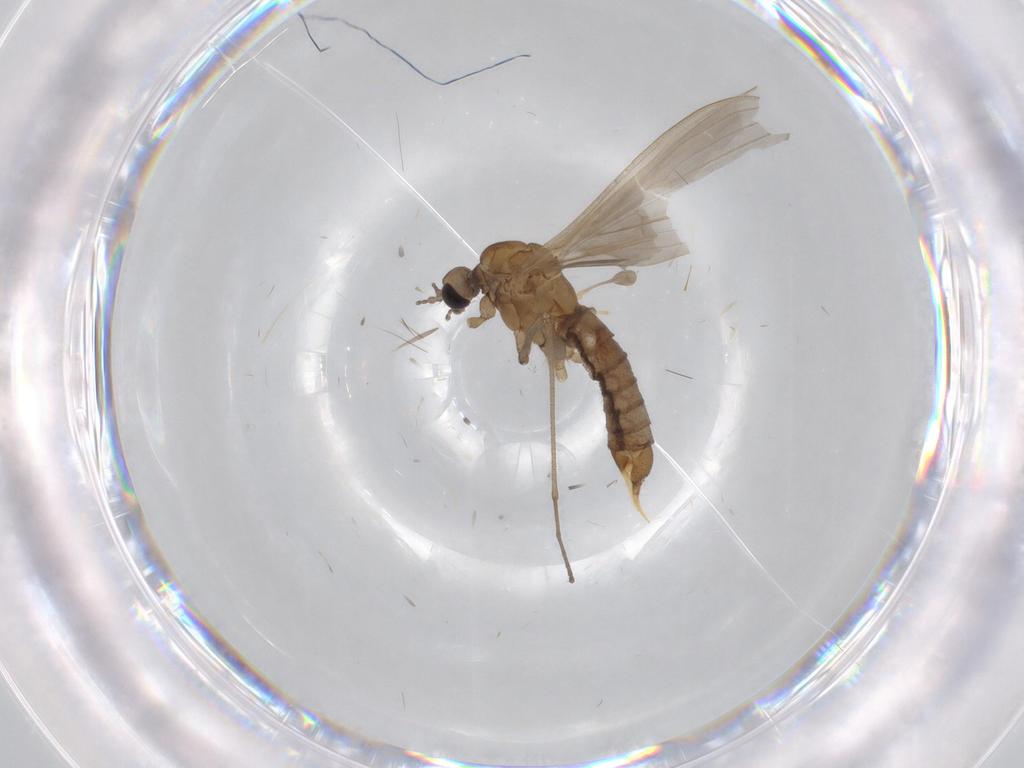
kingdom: Animalia
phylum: Arthropoda
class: Insecta
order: Diptera
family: Limoniidae
